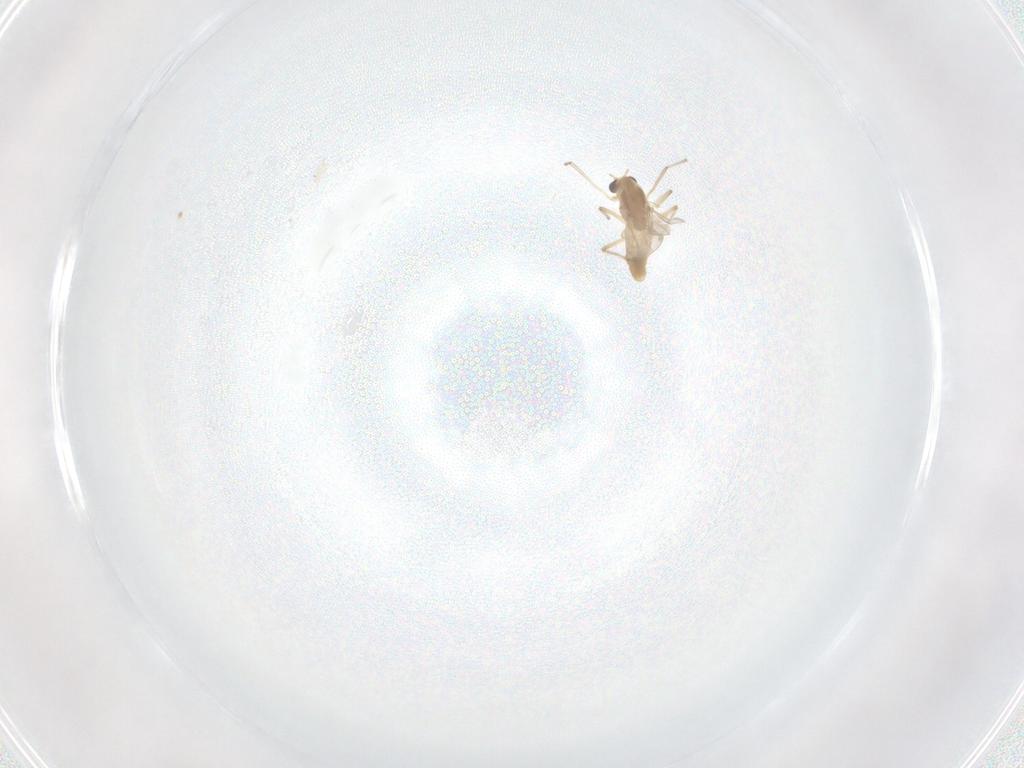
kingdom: Animalia
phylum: Arthropoda
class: Insecta
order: Diptera
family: Chironomidae
